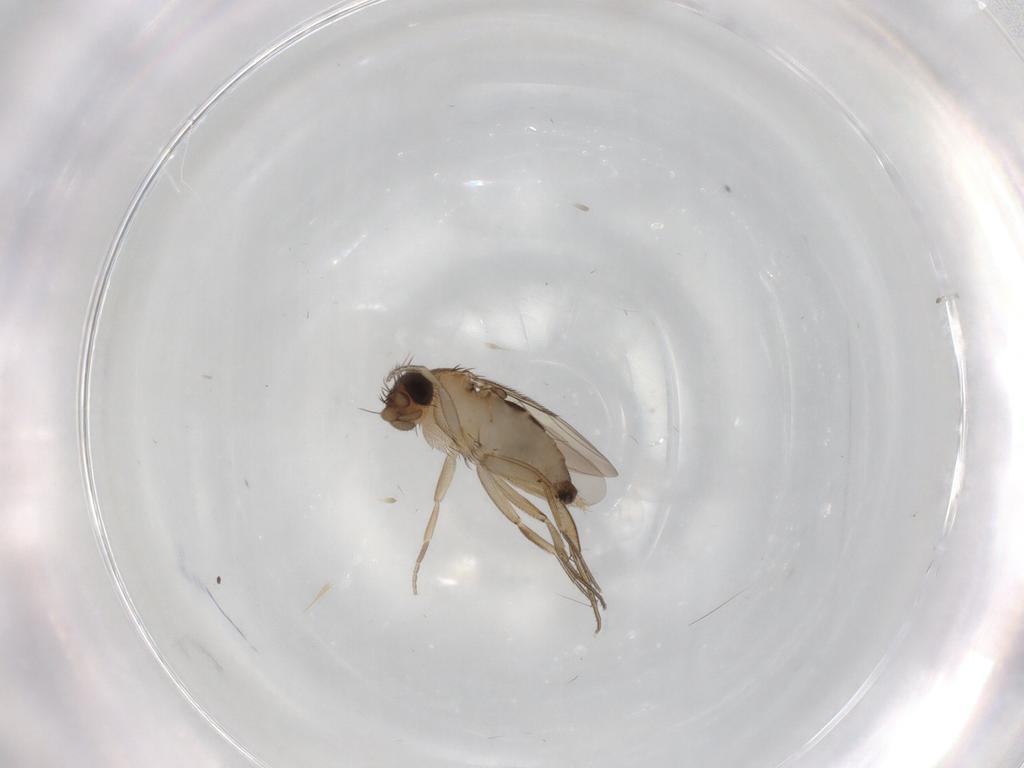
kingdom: Animalia
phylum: Arthropoda
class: Insecta
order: Diptera
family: Phoridae
